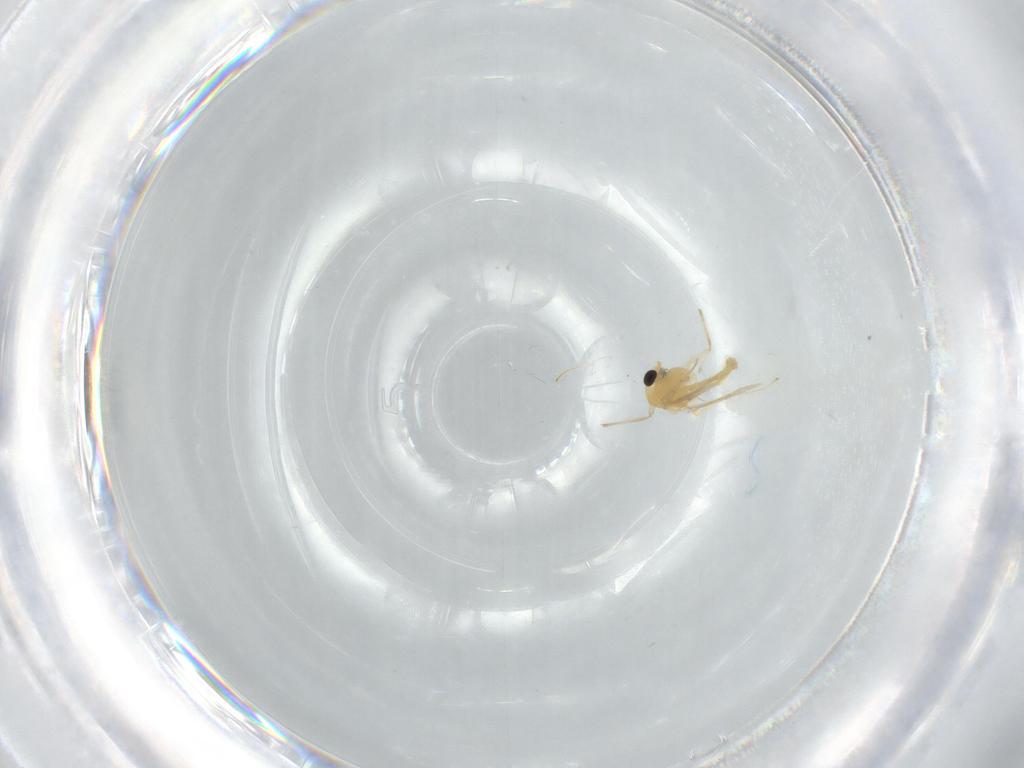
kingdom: Animalia
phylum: Arthropoda
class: Insecta
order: Diptera
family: Chironomidae
